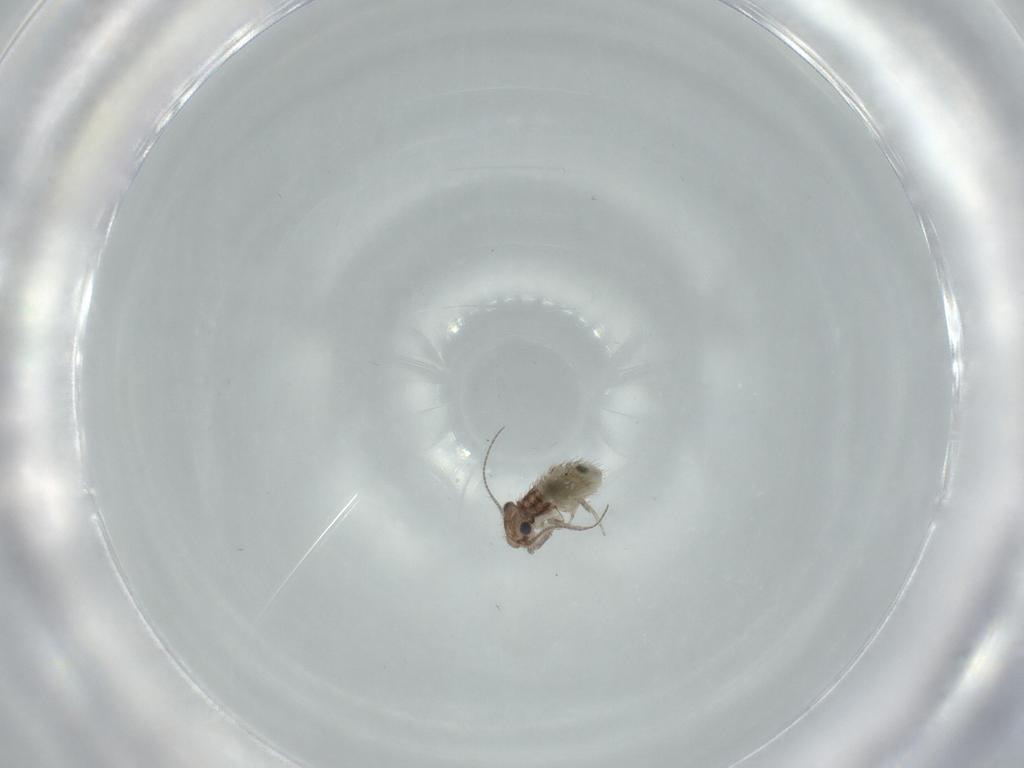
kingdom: Animalia
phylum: Arthropoda
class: Insecta
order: Psocodea
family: Lepidopsocidae
